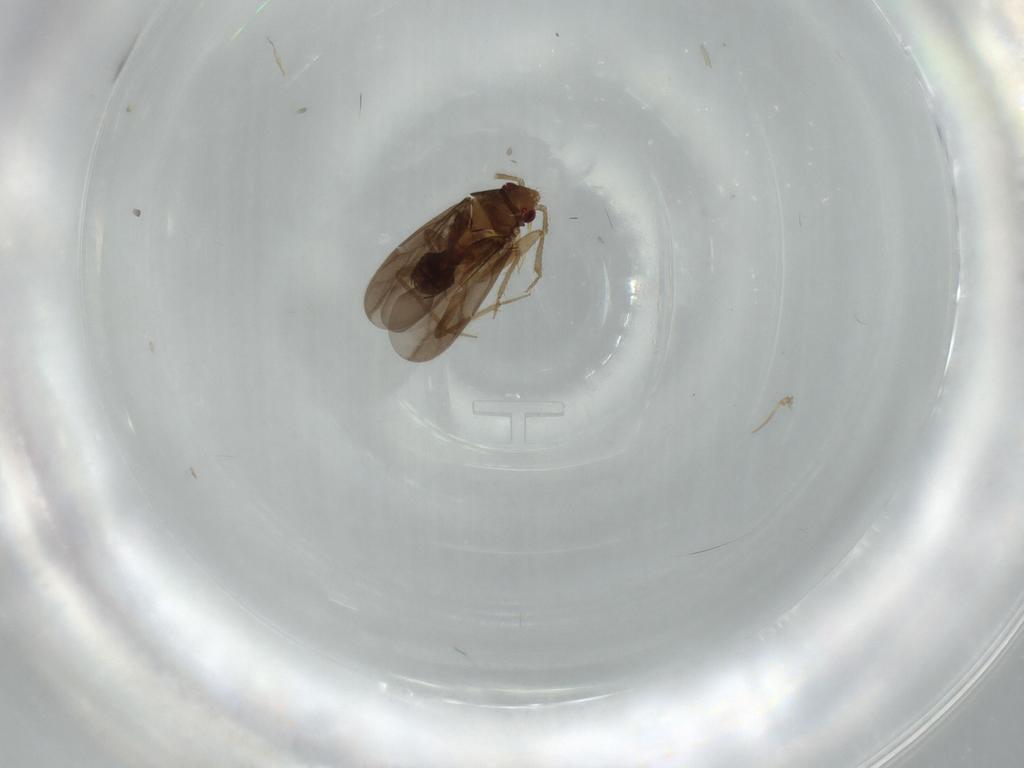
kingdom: Animalia
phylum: Arthropoda
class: Insecta
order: Hemiptera
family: Ceratocombidae
